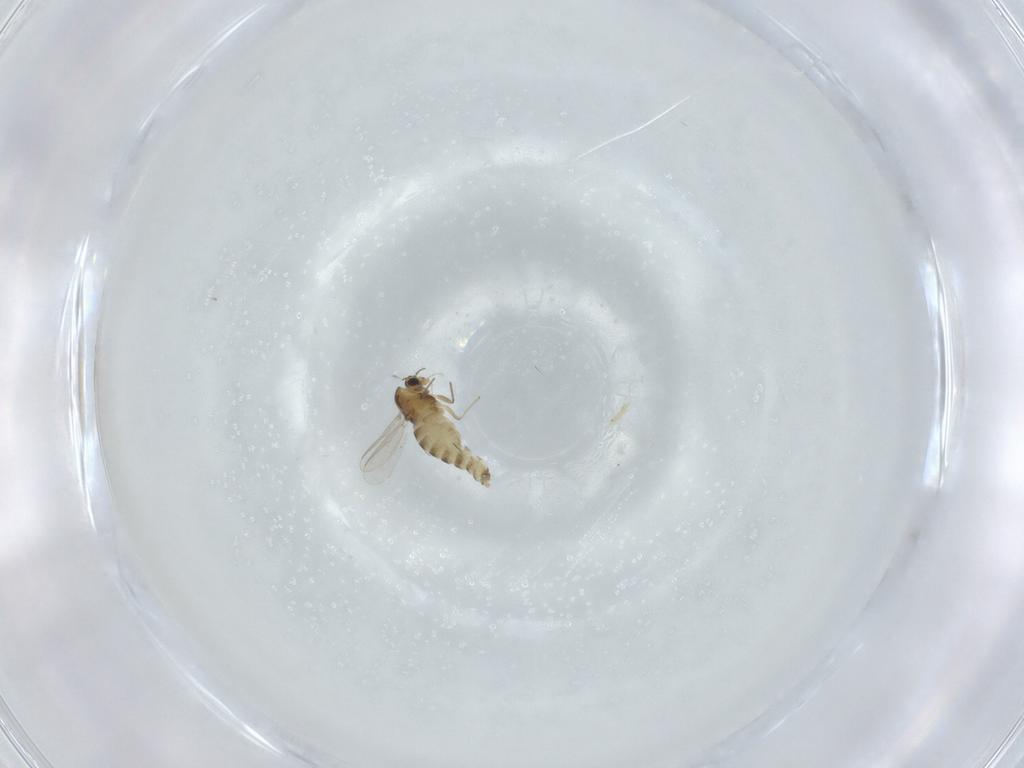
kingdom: Animalia
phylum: Arthropoda
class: Insecta
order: Diptera
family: Chironomidae
